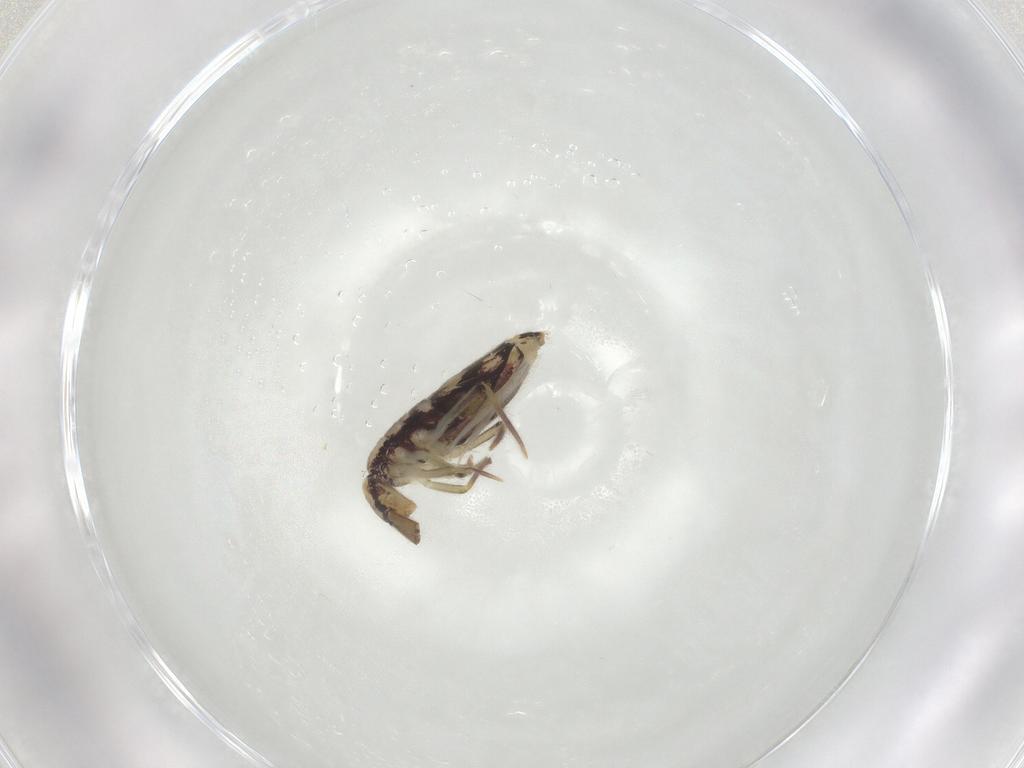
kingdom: Animalia
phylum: Arthropoda
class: Collembola
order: Entomobryomorpha
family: Entomobryidae
